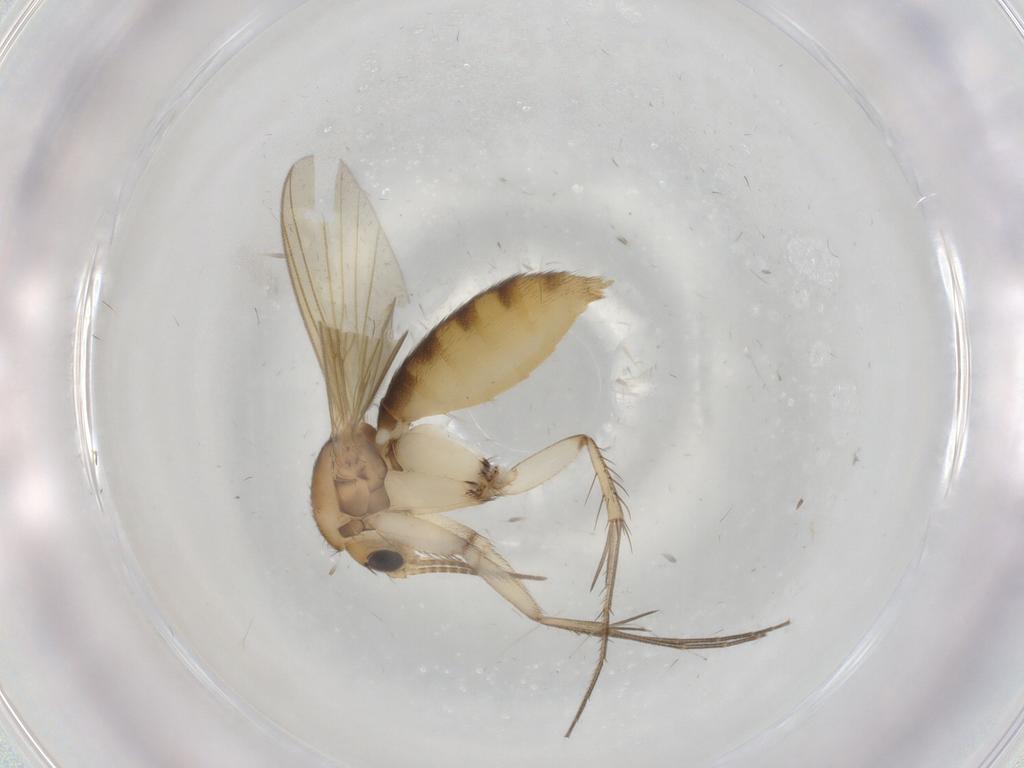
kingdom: Animalia
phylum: Arthropoda
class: Insecta
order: Diptera
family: Mycetophilidae
